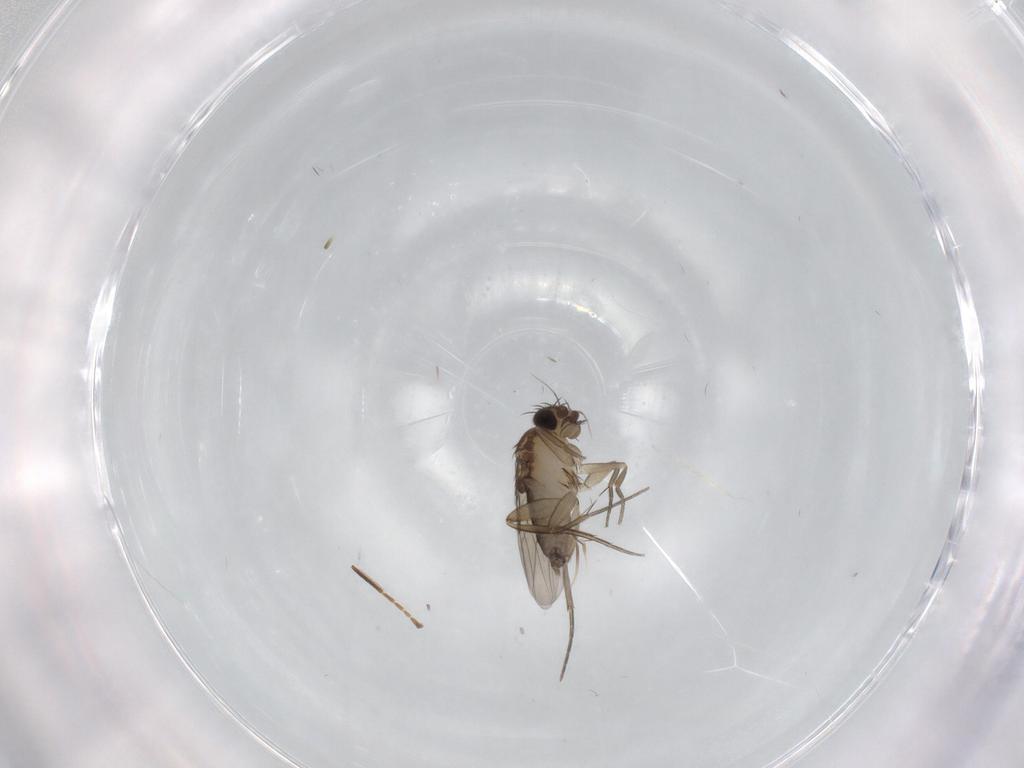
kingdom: Animalia
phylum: Arthropoda
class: Insecta
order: Diptera
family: Phoridae
